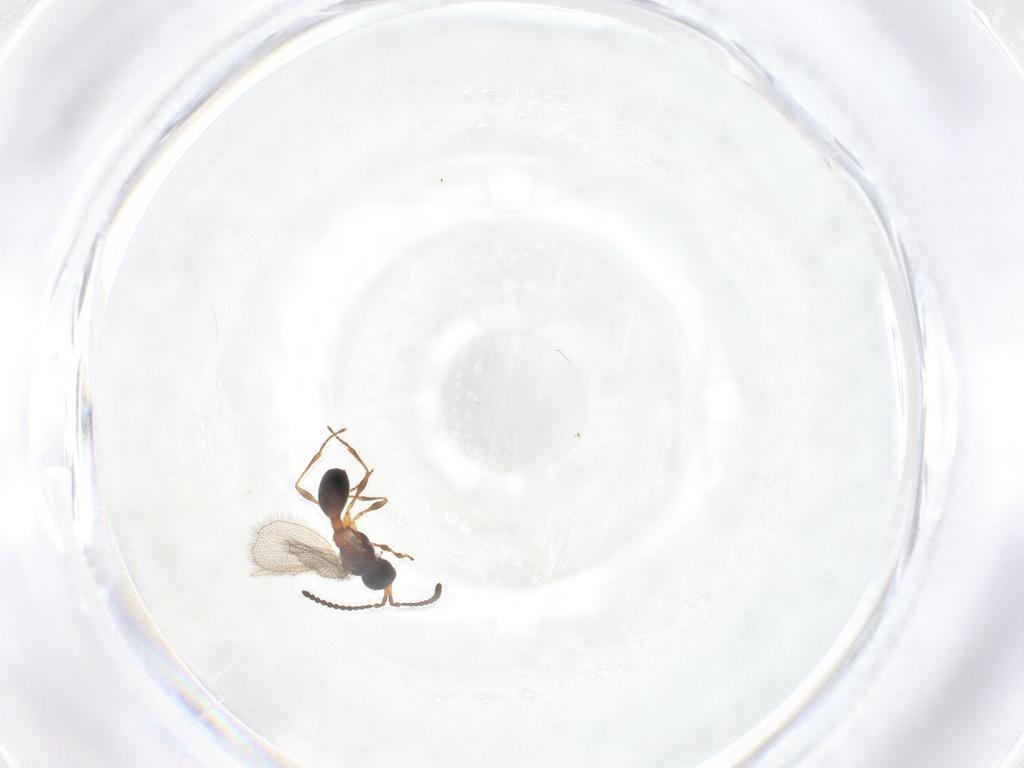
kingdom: Animalia
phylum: Arthropoda
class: Insecta
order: Hymenoptera
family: Diapriidae
